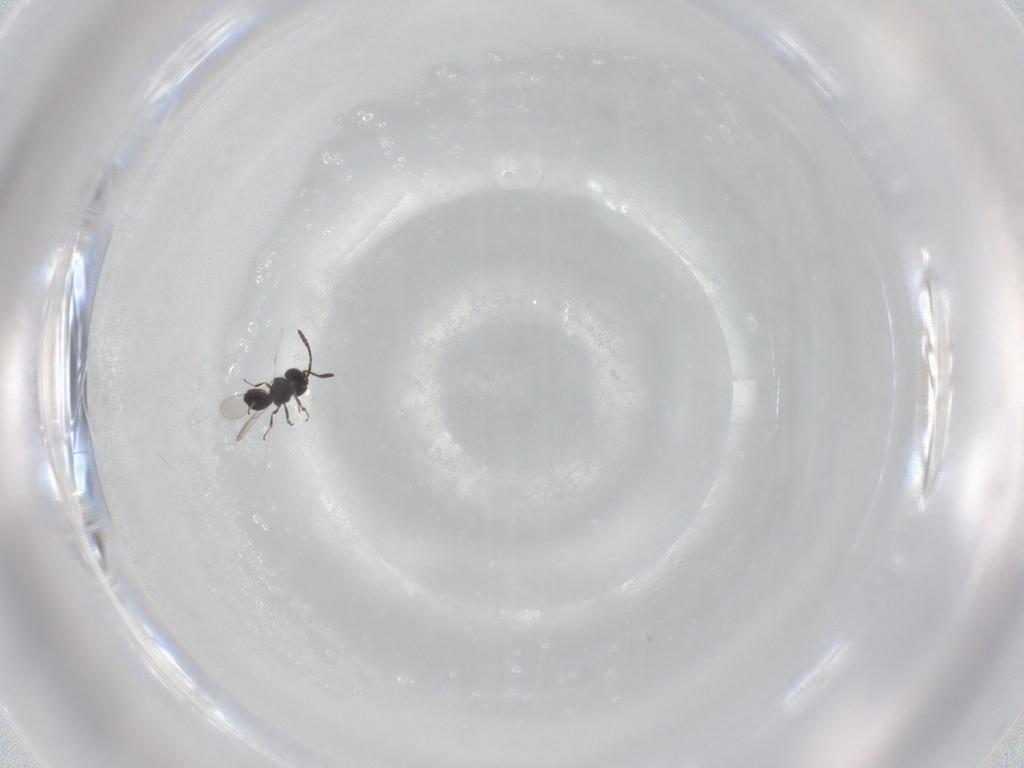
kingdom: Animalia
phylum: Arthropoda
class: Insecta
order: Hymenoptera
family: Scelionidae
